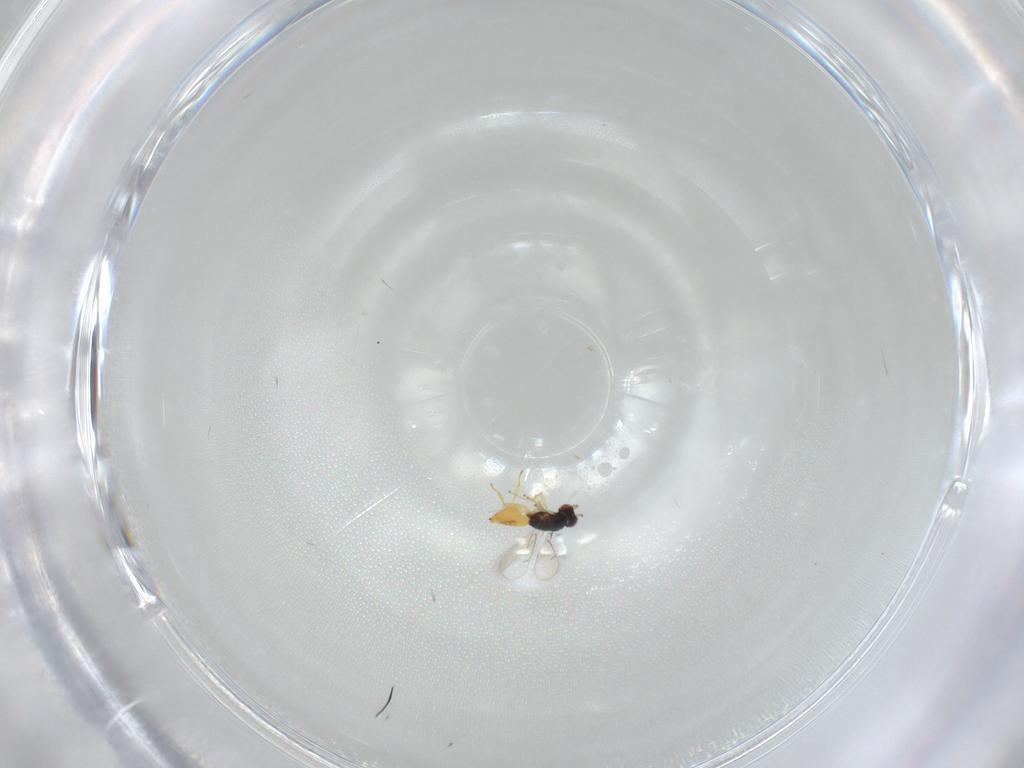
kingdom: Animalia
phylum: Arthropoda
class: Insecta
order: Hymenoptera
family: Eulophidae
